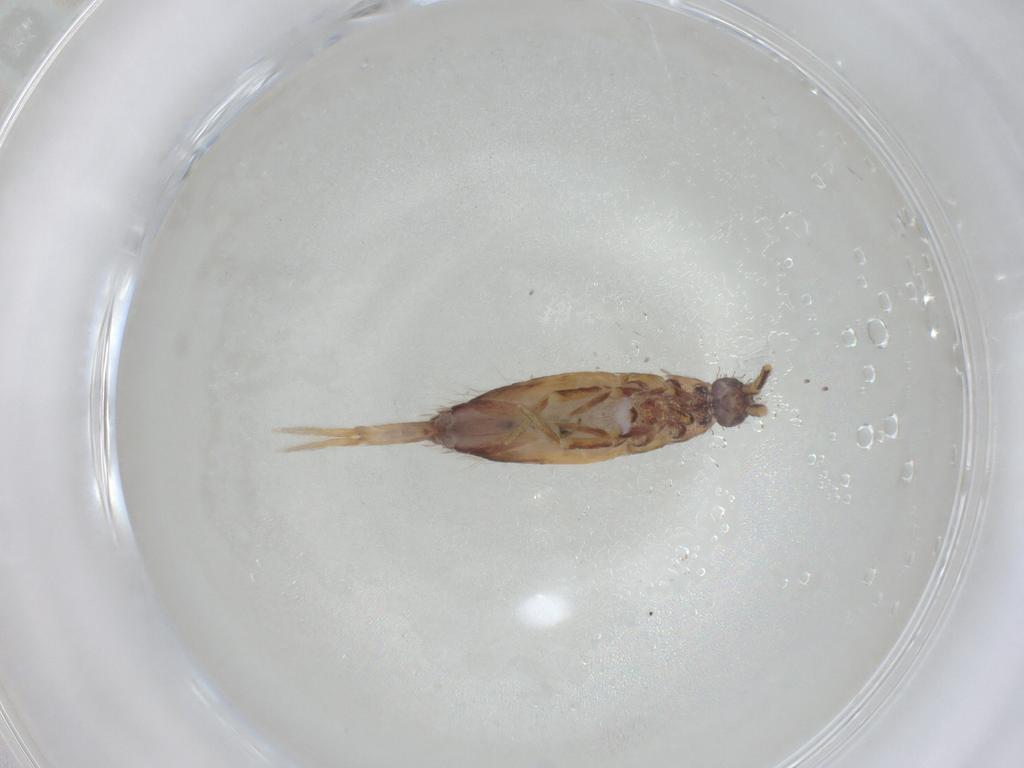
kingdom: Animalia
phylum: Arthropoda
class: Collembola
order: Entomobryomorpha
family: Entomobryidae
